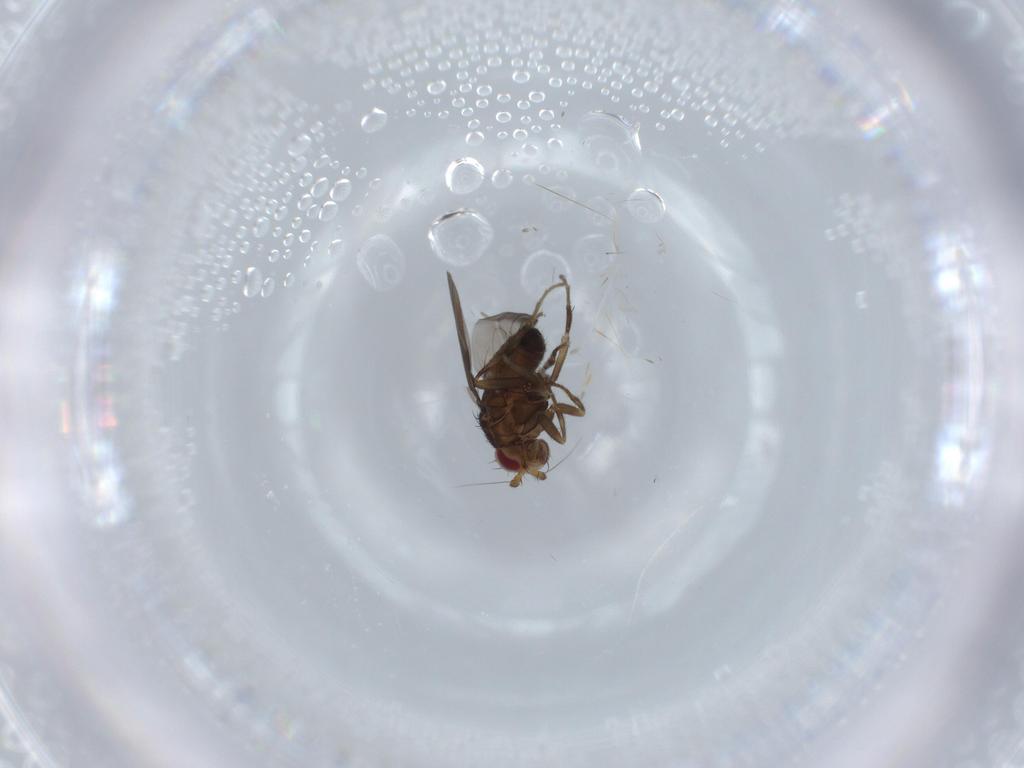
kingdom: Animalia
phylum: Arthropoda
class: Insecta
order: Diptera
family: Sphaeroceridae
